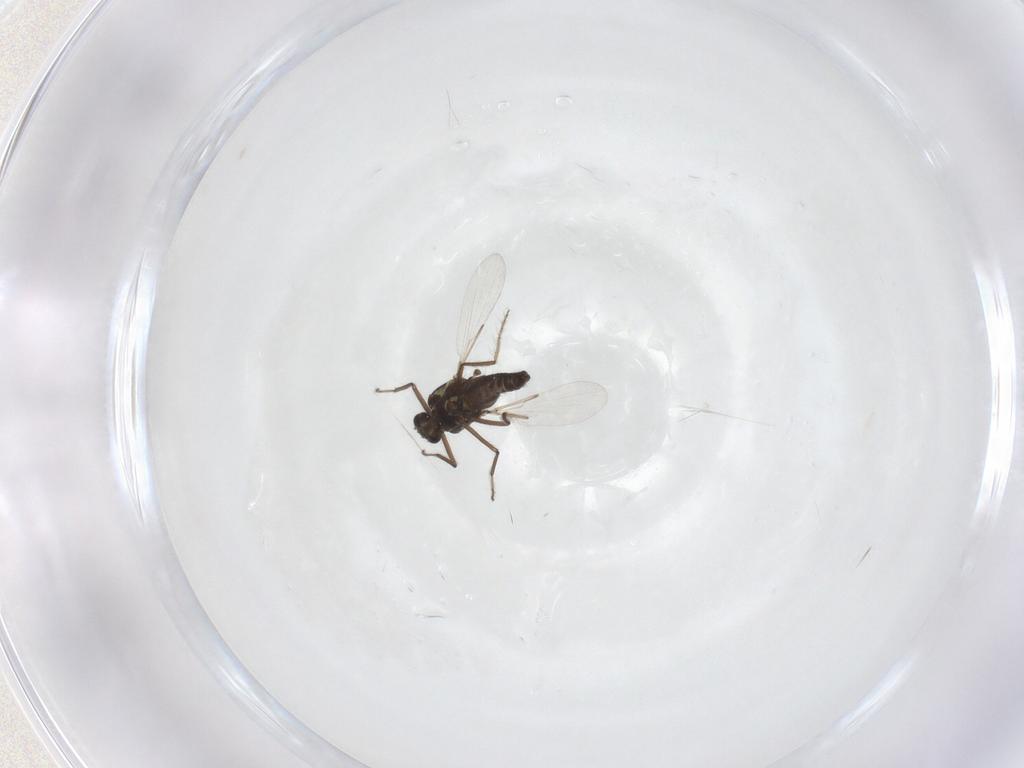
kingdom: Animalia
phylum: Arthropoda
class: Insecta
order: Diptera
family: Ceratopogonidae
